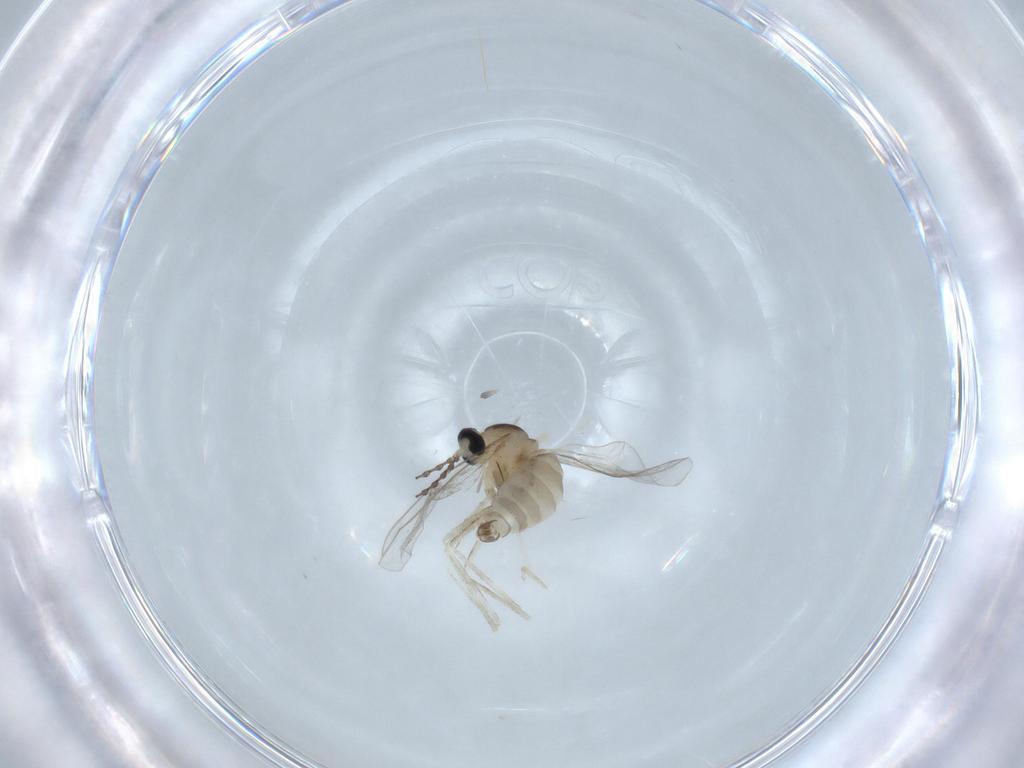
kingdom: Animalia
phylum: Arthropoda
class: Insecta
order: Diptera
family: Cecidomyiidae
